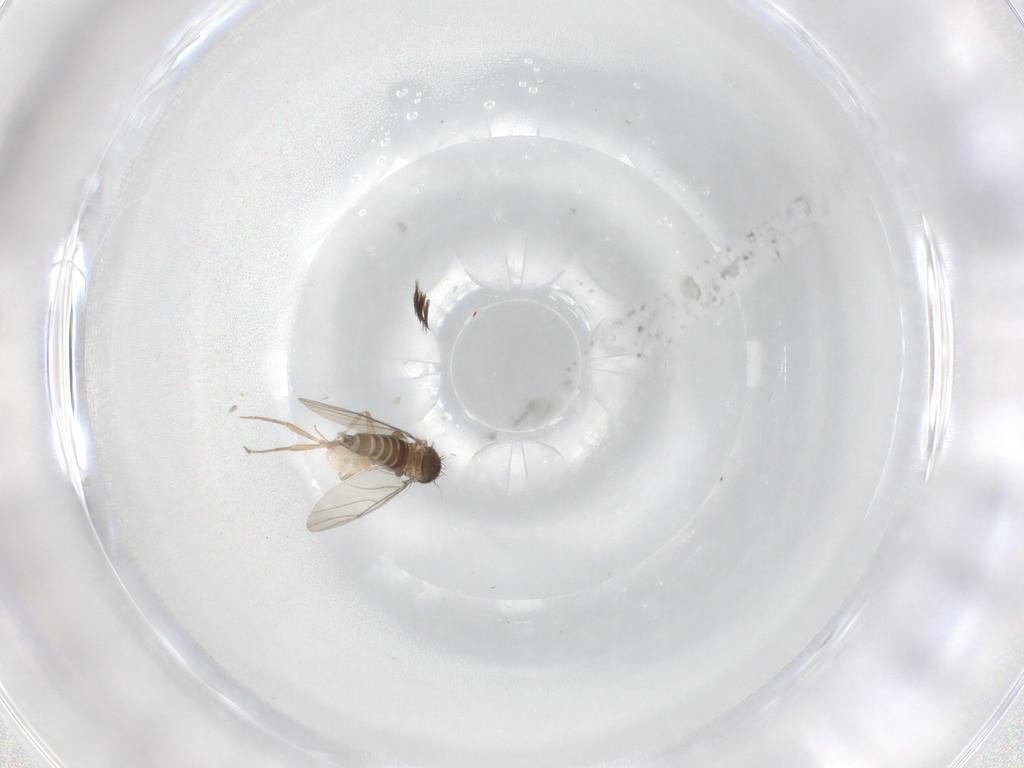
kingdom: Animalia
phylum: Arthropoda
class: Insecta
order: Diptera
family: Phoridae
